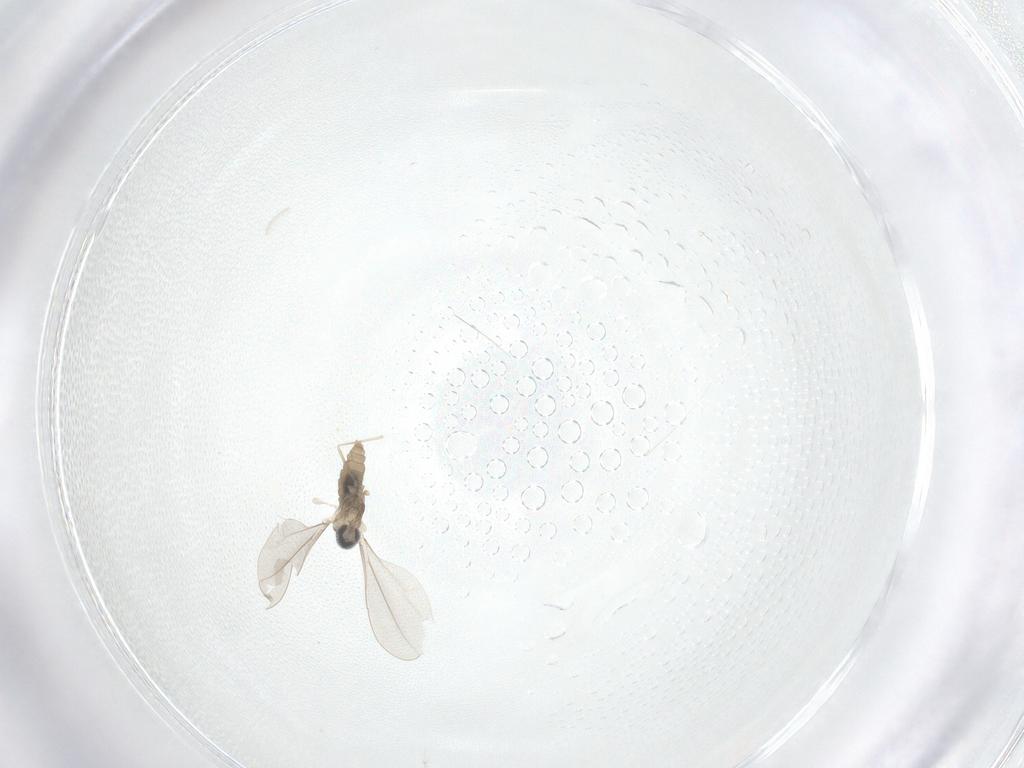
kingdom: Animalia
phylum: Arthropoda
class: Insecta
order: Diptera
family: Cecidomyiidae
